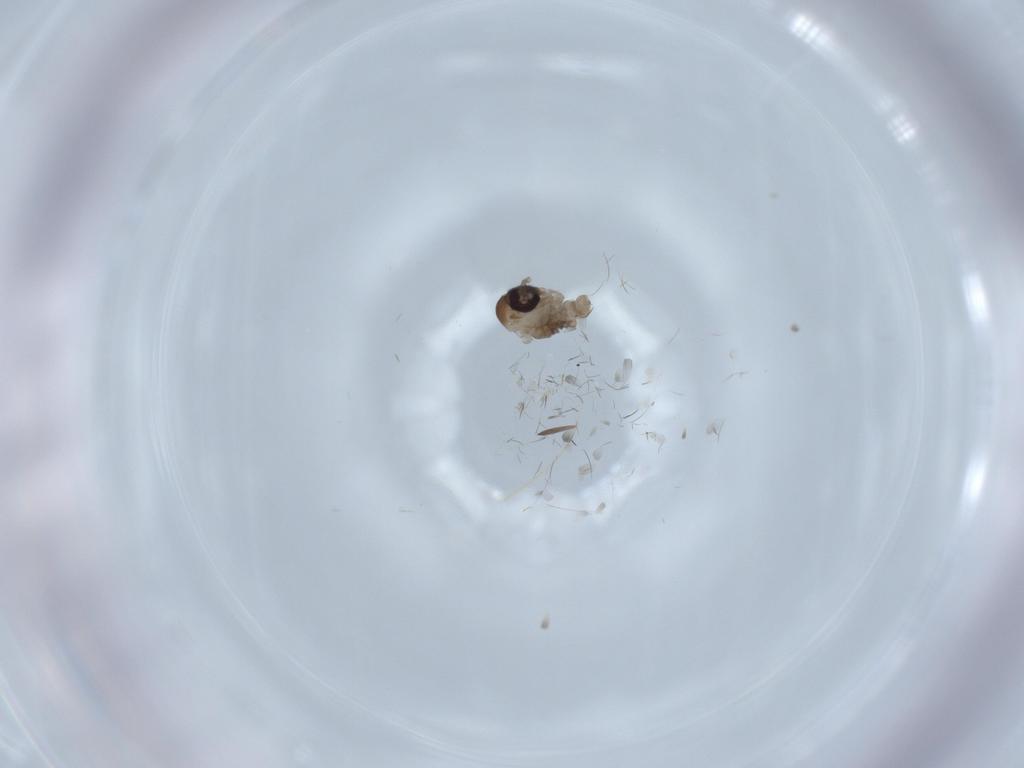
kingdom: Animalia
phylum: Arthropoda
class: Insecta
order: Diptera
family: Psychodidae
